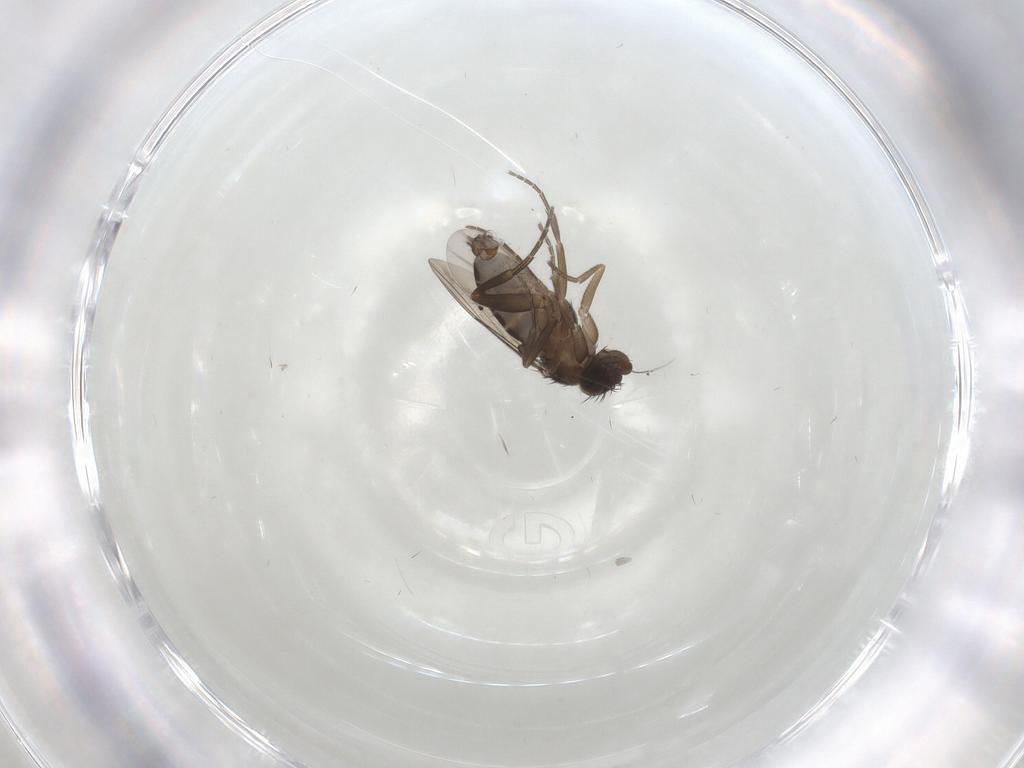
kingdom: Animalia
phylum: Arthropoda
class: Insecta
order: Diptera
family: Phoridae
